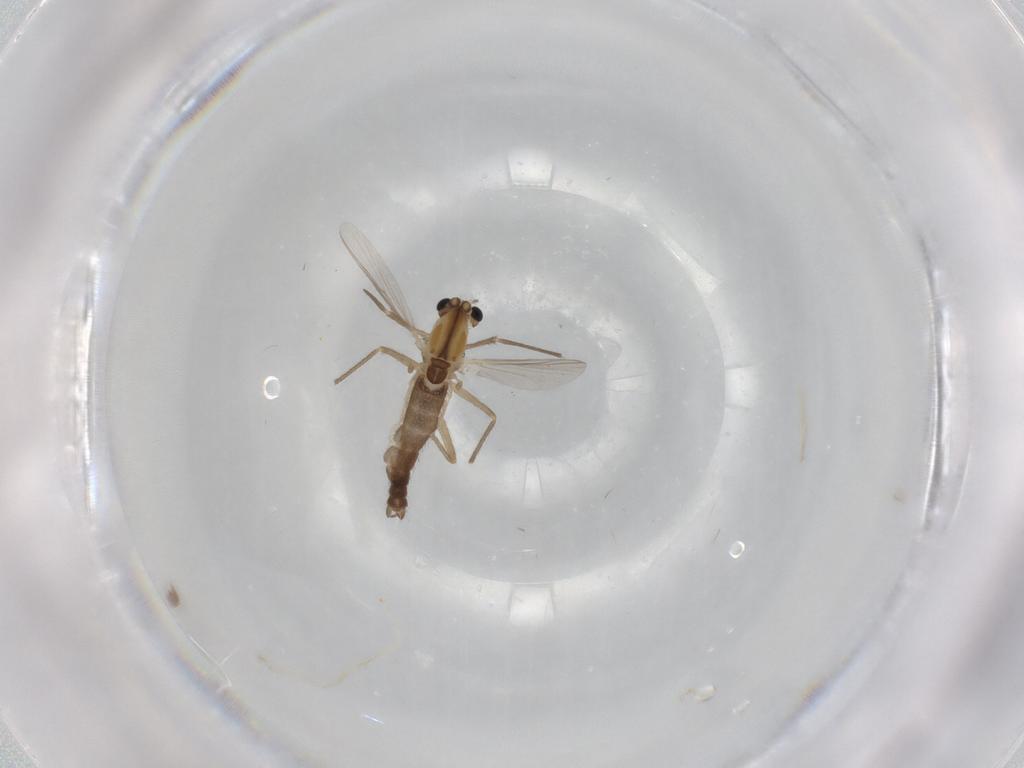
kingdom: Animalia
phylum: Arthropoda
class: Insecta
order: Diptera
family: Chironomidae
